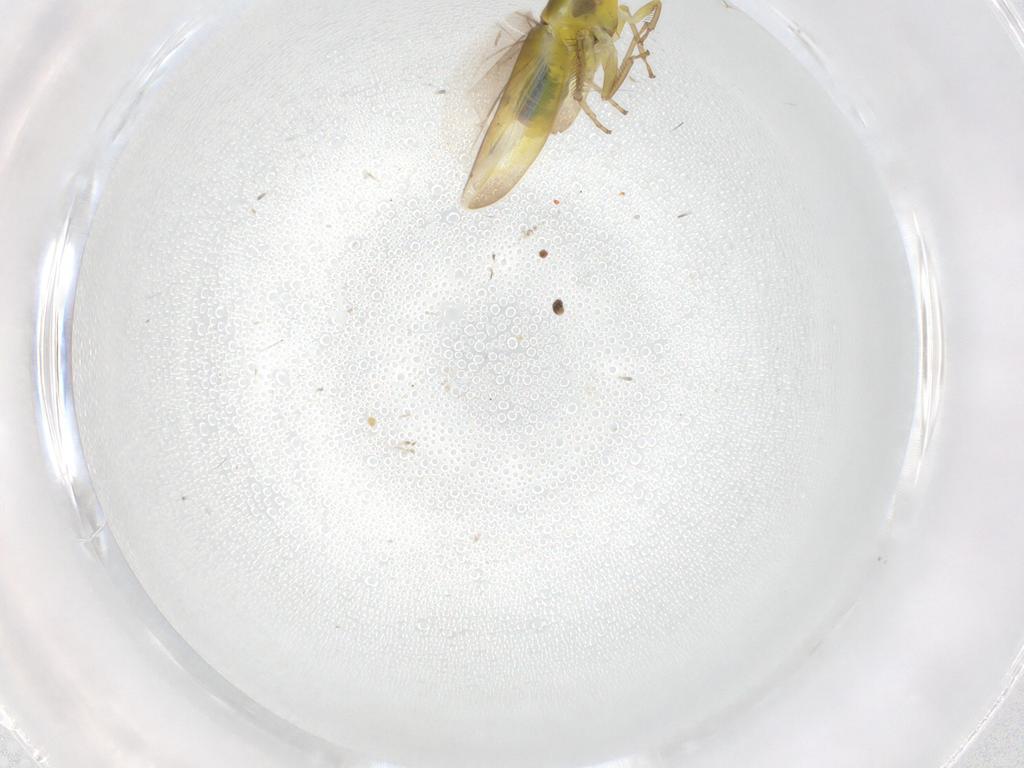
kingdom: Animalia
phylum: Arthropoda
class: Insecta
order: Hemiptera
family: Cicadellidae
